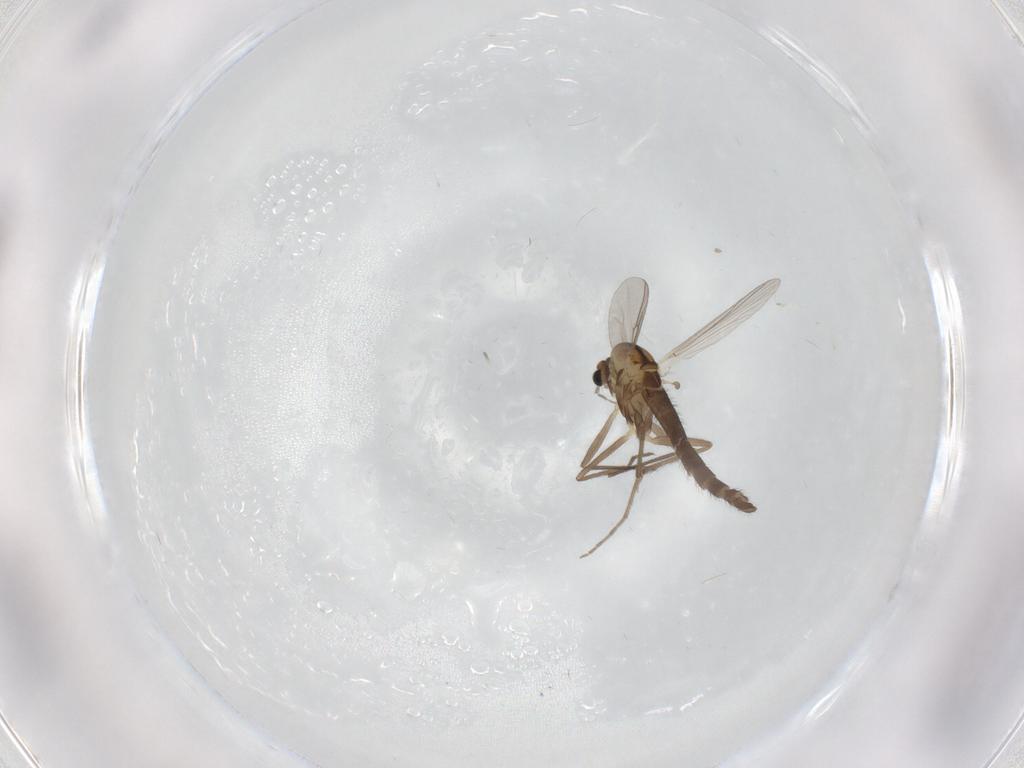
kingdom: Animalia
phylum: Arthropoda
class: Insecta
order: Diptera
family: Chironomidae
